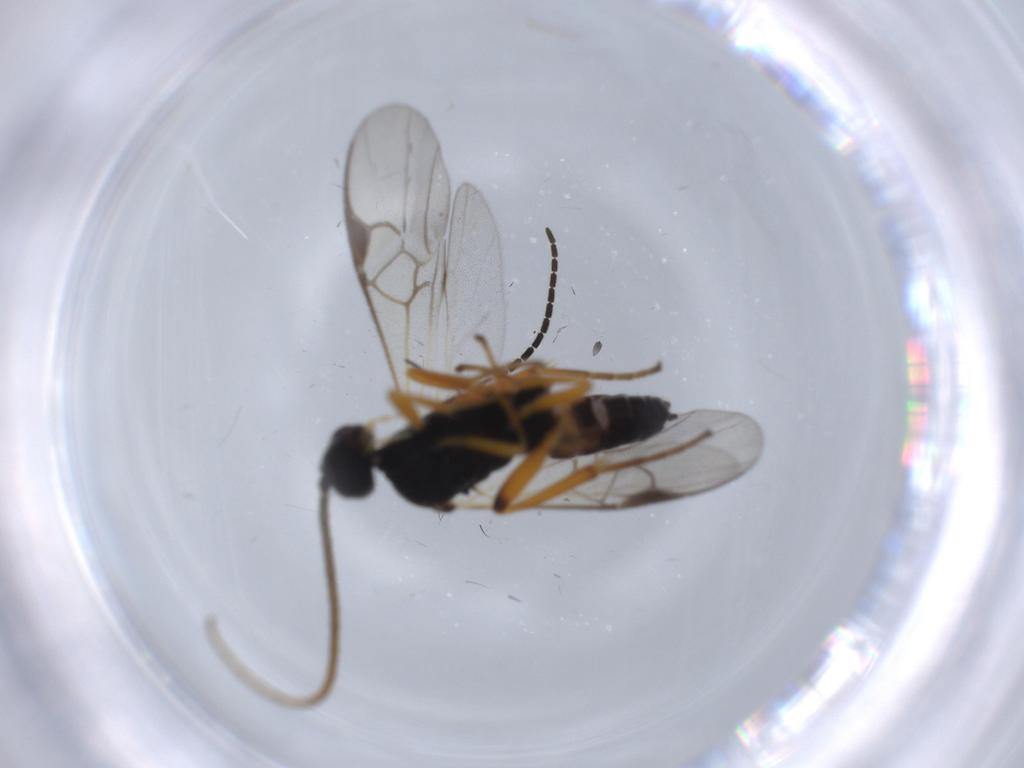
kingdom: Animalia
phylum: Arthropoda
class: Insecta
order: Hymenoptera
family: Braconidae
